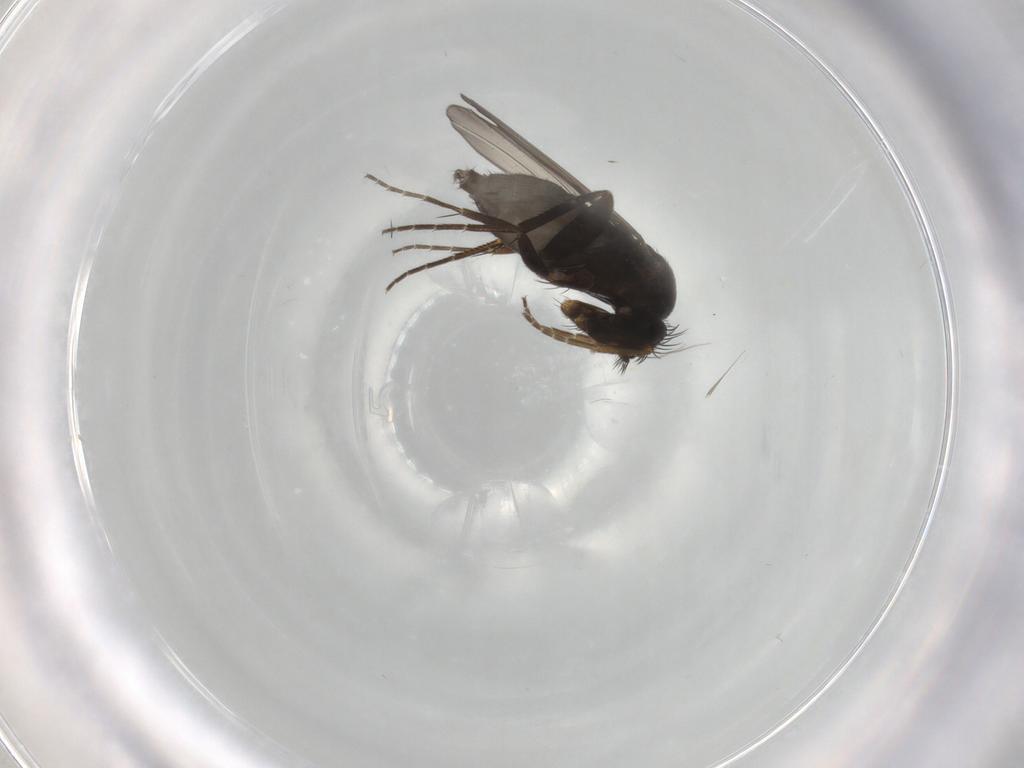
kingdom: Animalia
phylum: Arthropoda
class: Insecta
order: Diptera
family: Phoridae
